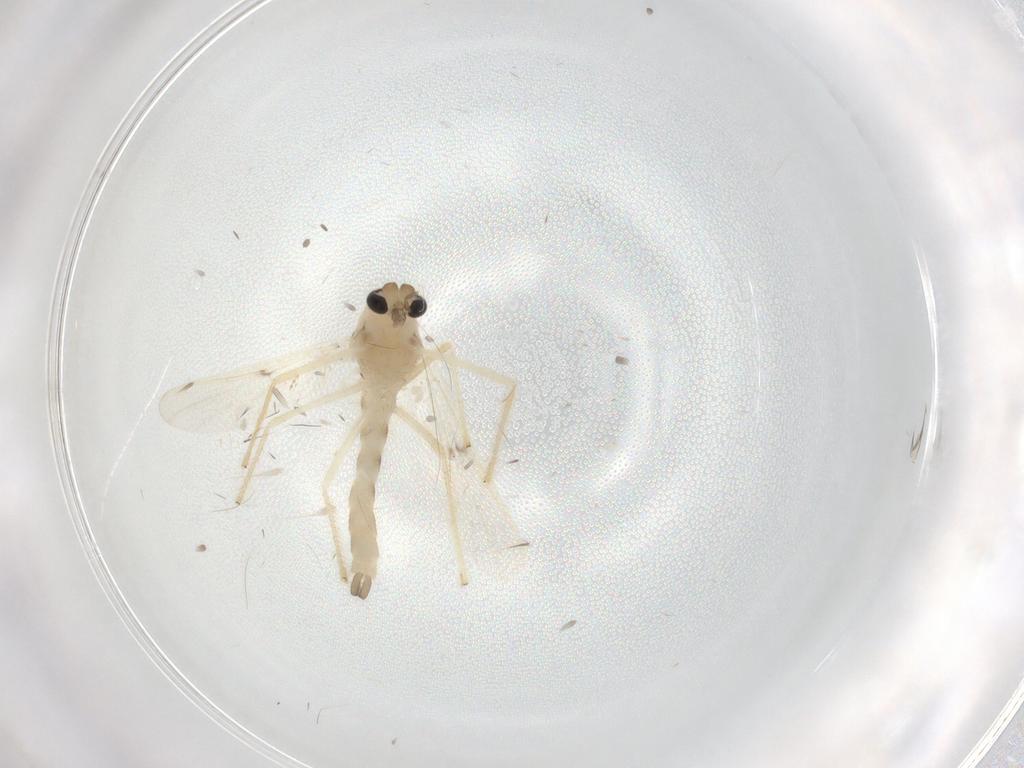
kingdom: Animalia
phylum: Arthropoda
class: Insecta
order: Diptera
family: Chironomidae
